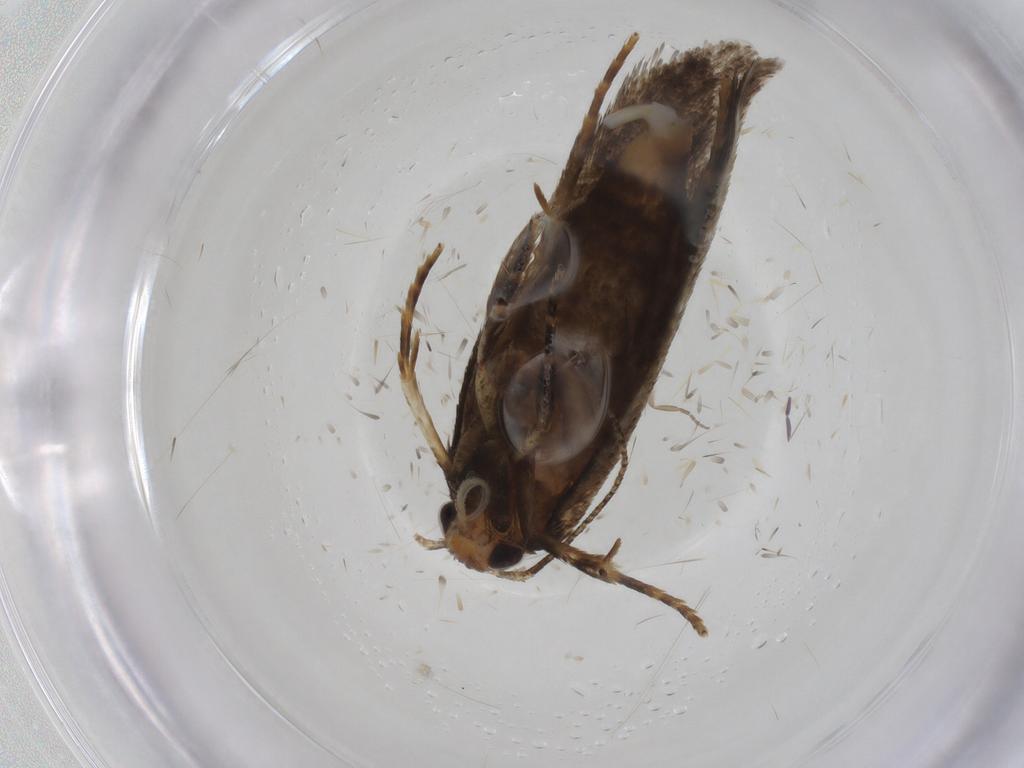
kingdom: Animalia
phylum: Arthropoda
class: Insecta
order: Lepidoptera
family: Oecophoridae
